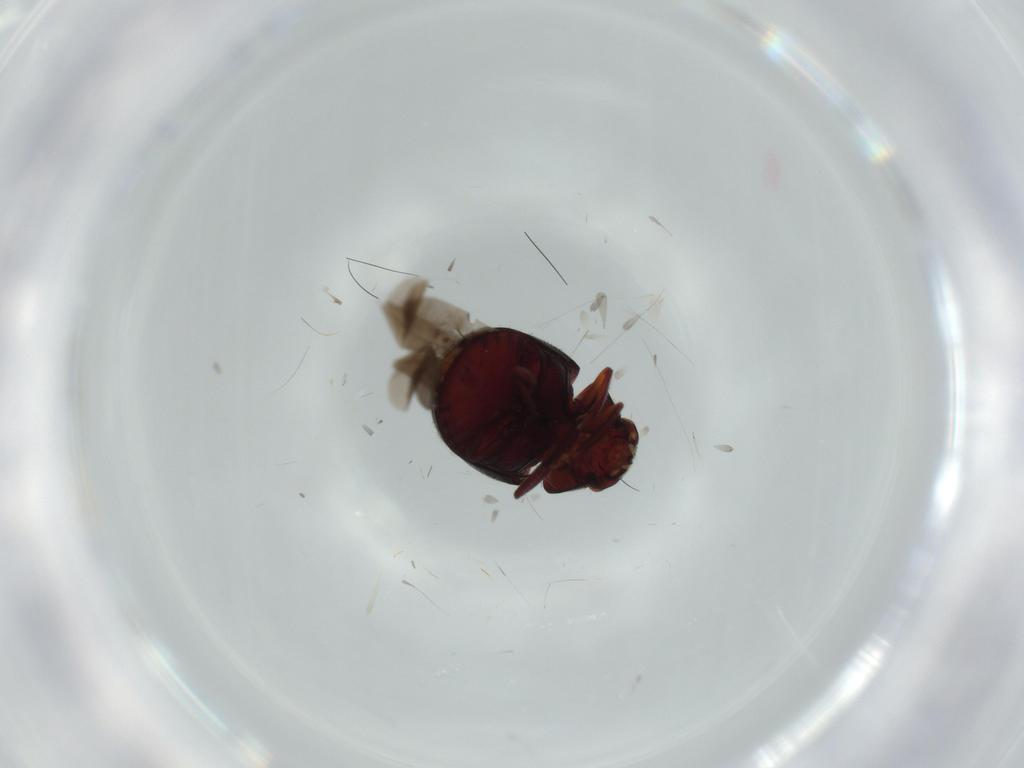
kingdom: Animalia
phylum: Arthropoda
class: Insecta
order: Coleoptera
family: Ptinidae
